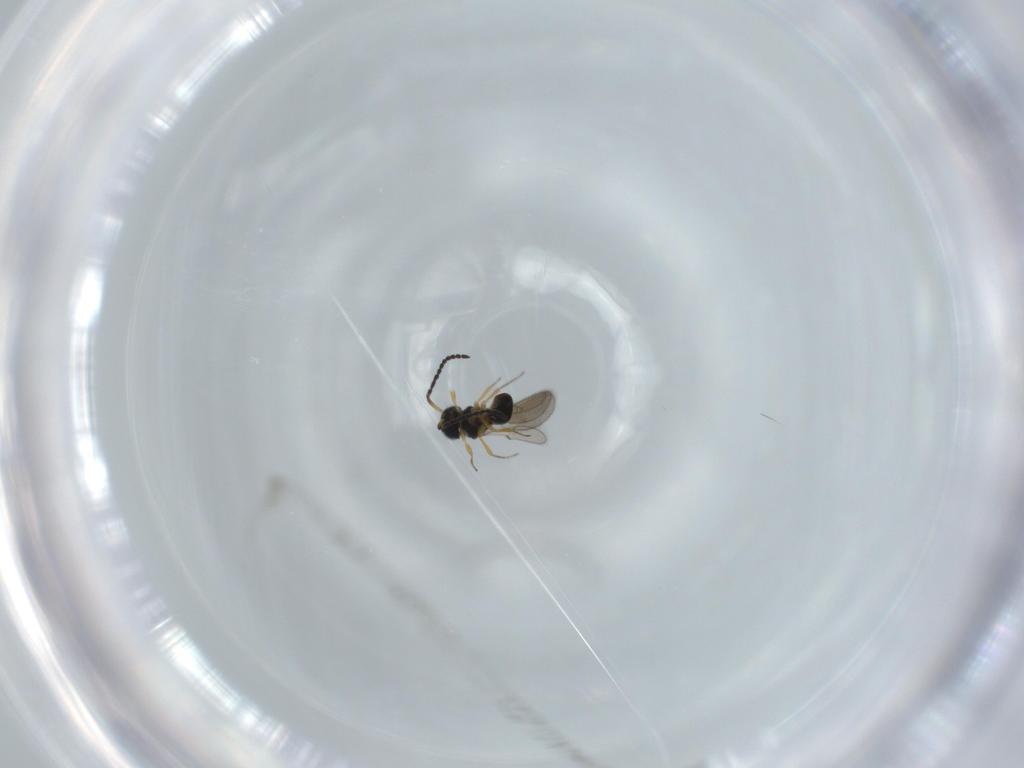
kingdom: Animalia
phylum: Arthropoda
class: Insecta
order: Hymenoptera
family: Scelionidae
